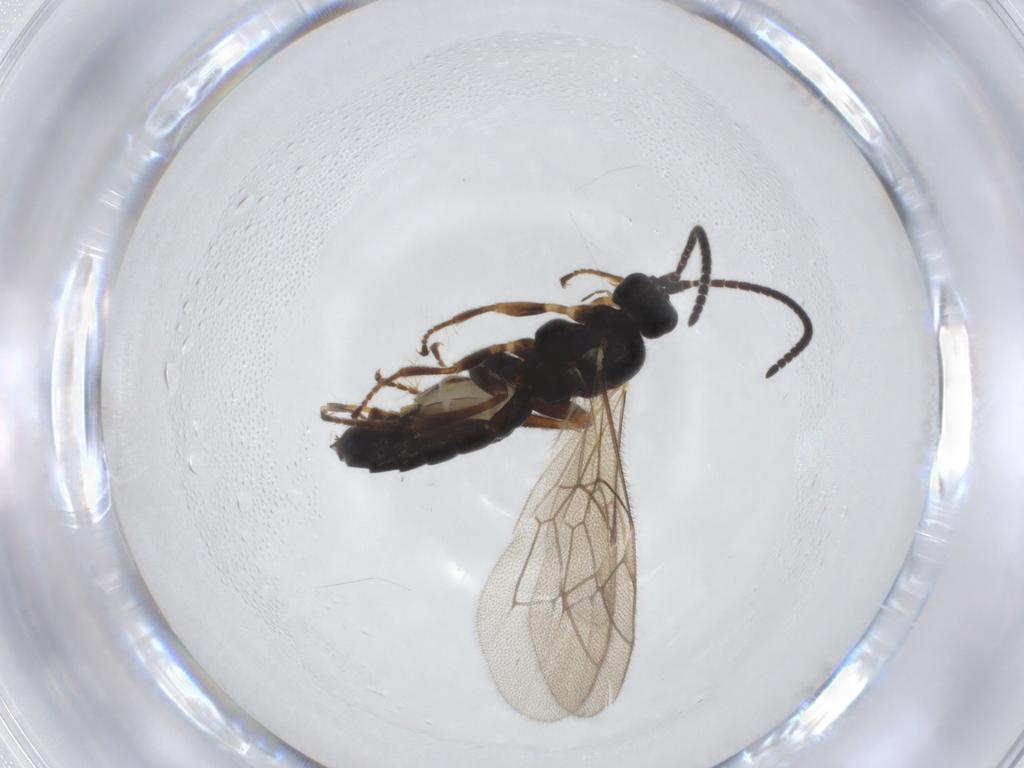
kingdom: Animalia
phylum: Arthropoda
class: Insecta
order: Hymenoptera
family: Ichneumonidae
